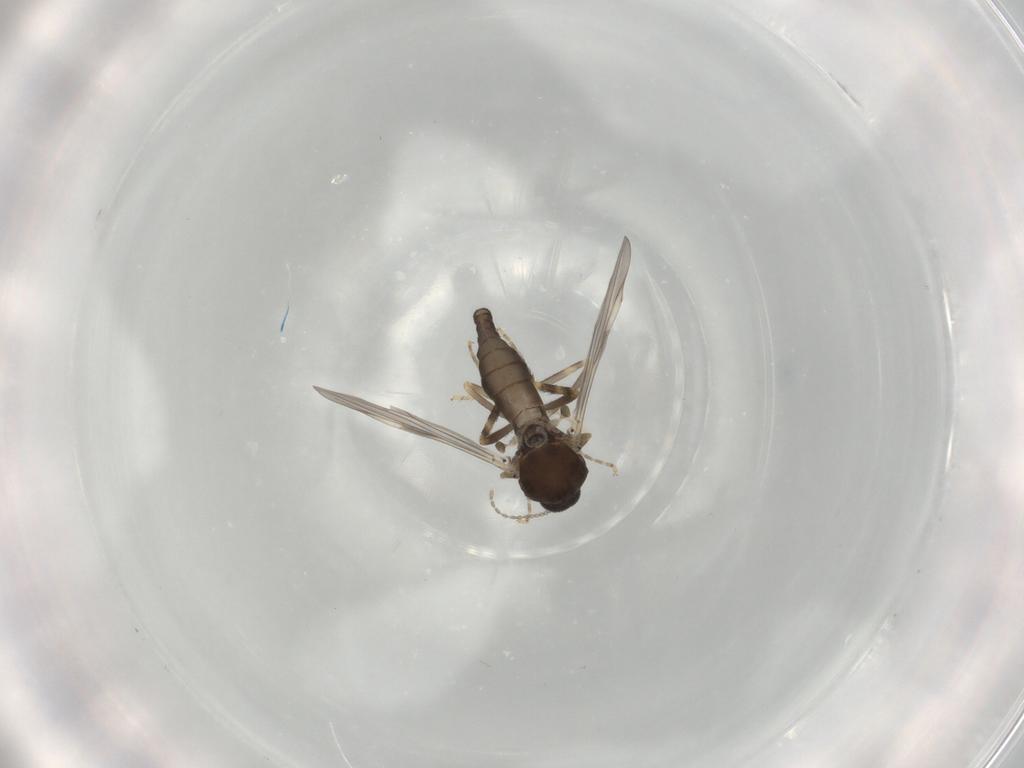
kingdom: Animalia
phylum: Arthropoda
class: Insecta
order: Diptera
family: Ceratopogonidae
